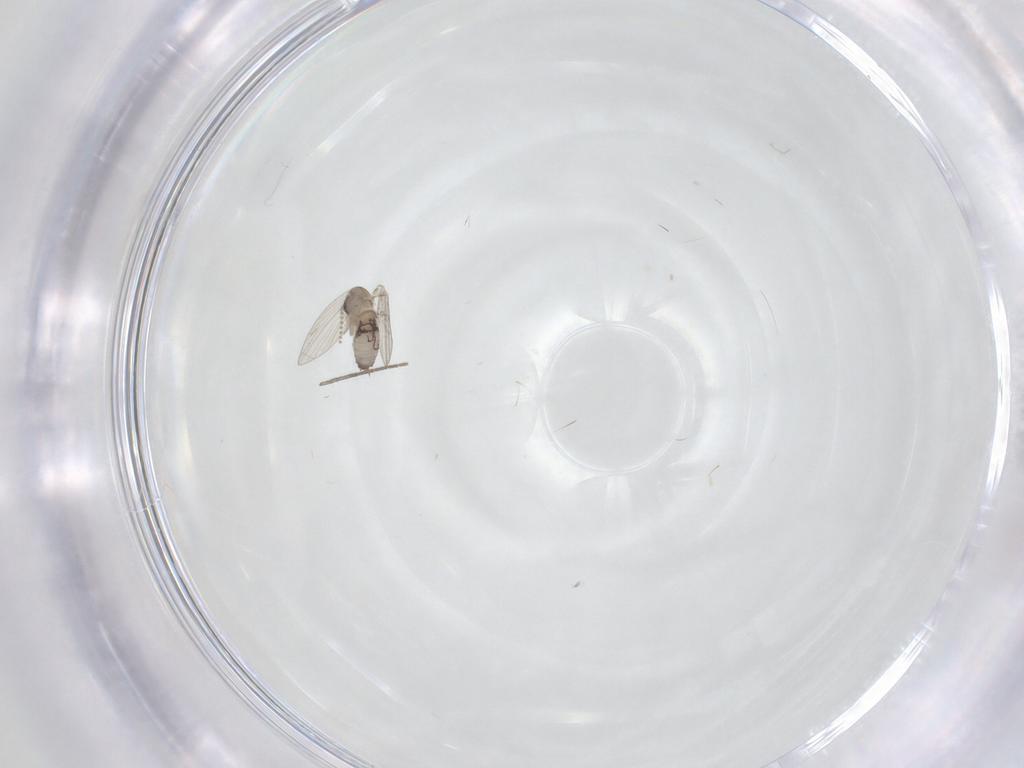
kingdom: Animalia
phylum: Arthropoda
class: Insecta
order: Diptera
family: Psychodidae
